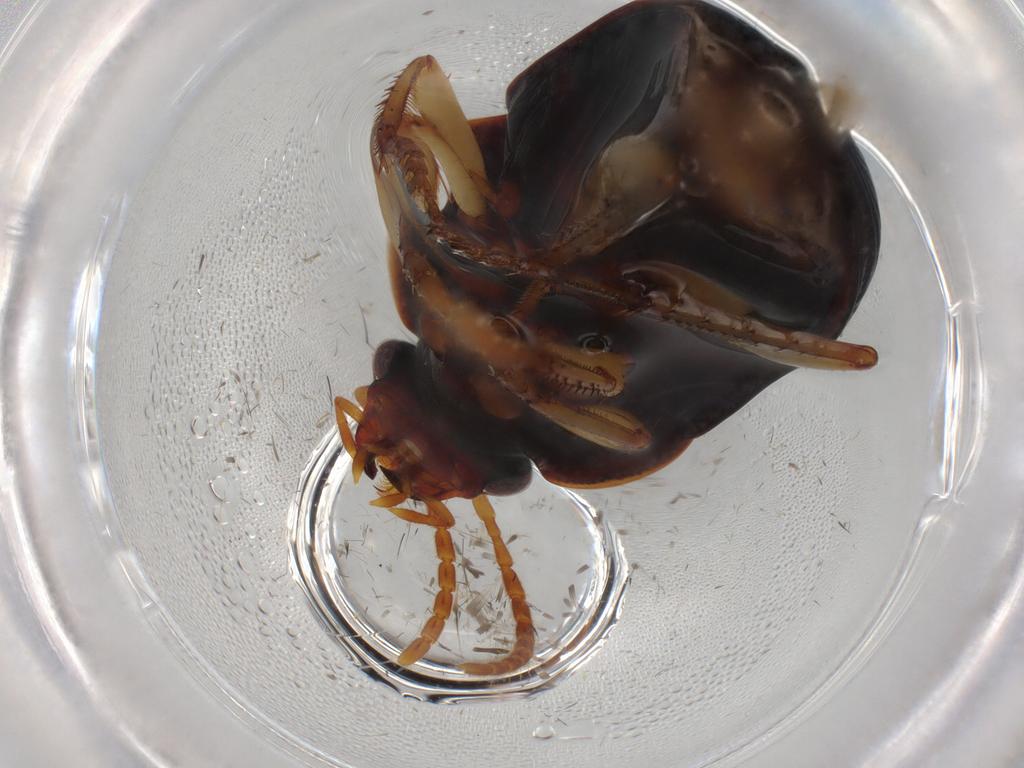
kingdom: Animalia
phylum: Arthropoda
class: Insecta
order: Coleoptera
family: Carabidae
